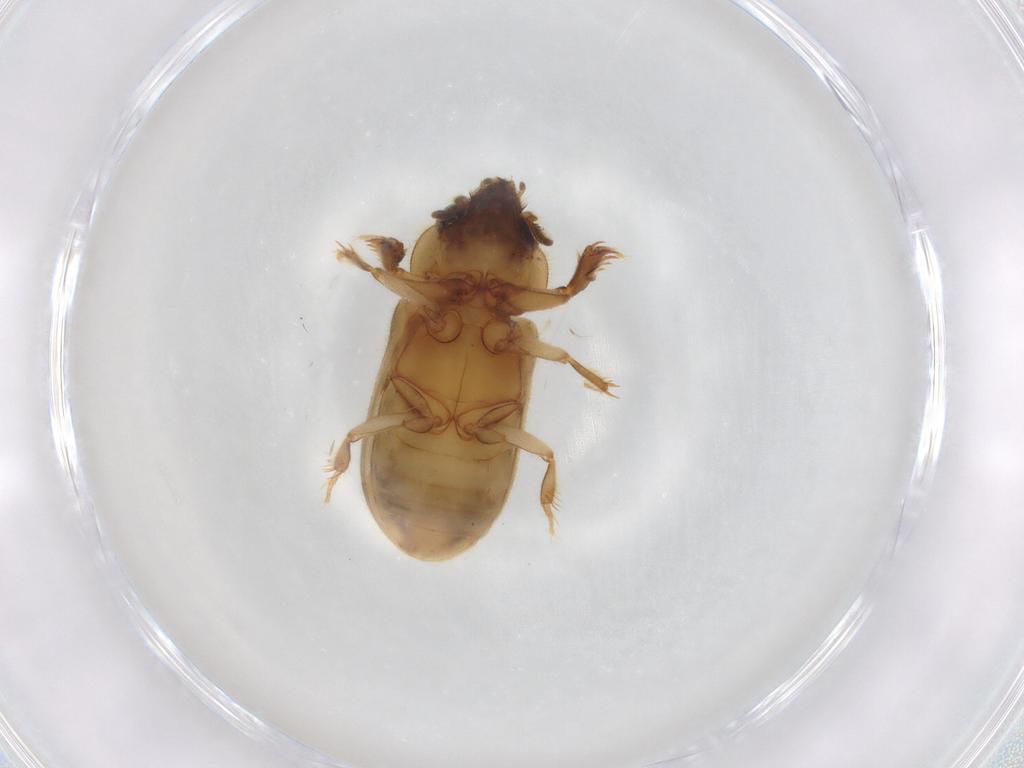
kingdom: Animalia
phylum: Arthropoda
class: Insecta
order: Coleoptera
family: Heteroceridae
